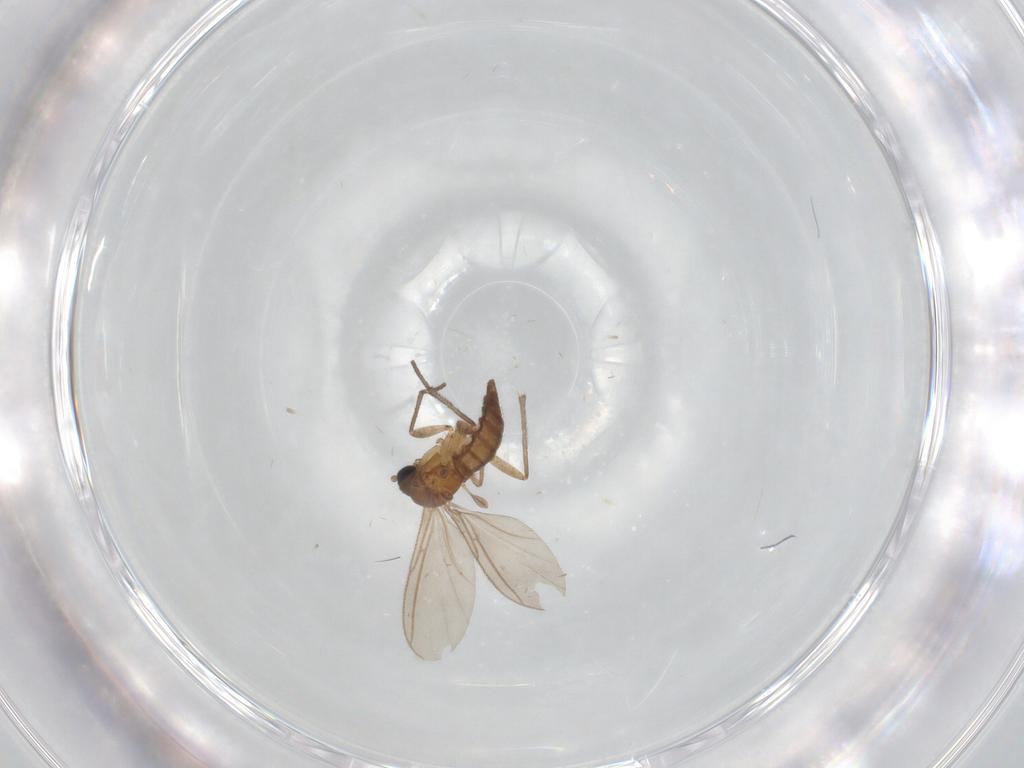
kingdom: Animalia
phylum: Arthropoda
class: Insecta
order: Diptera
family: Sciaridae
